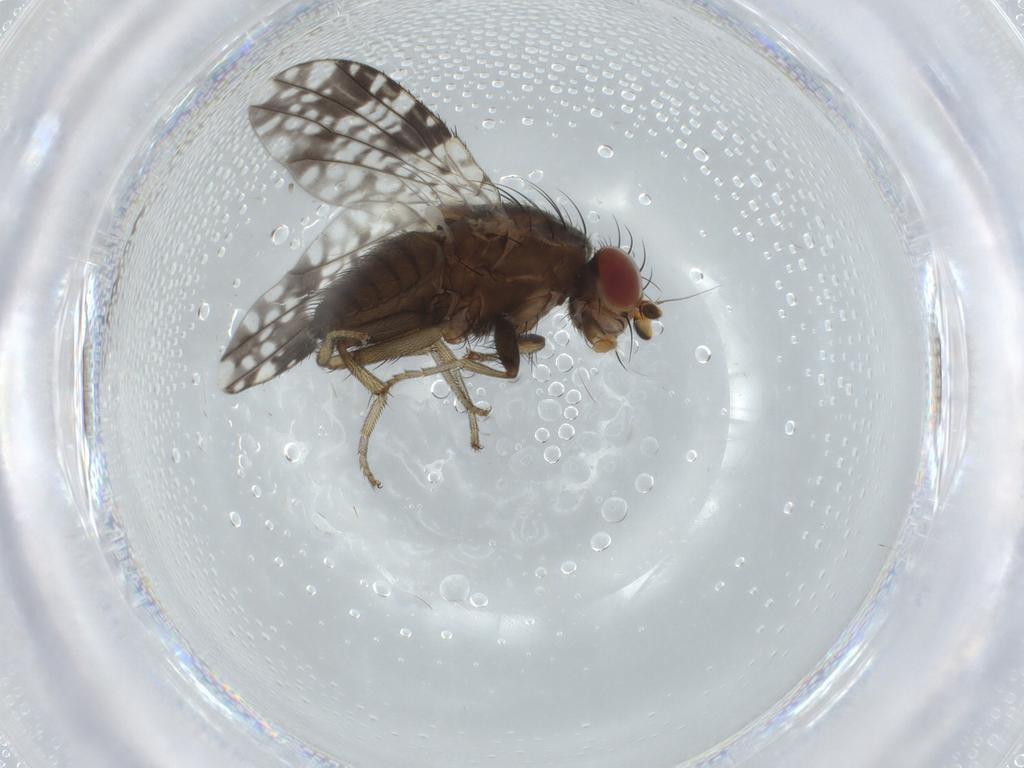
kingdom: Animalia
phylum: Arthropoda
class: Insecta
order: Diptera
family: Tephritidae
